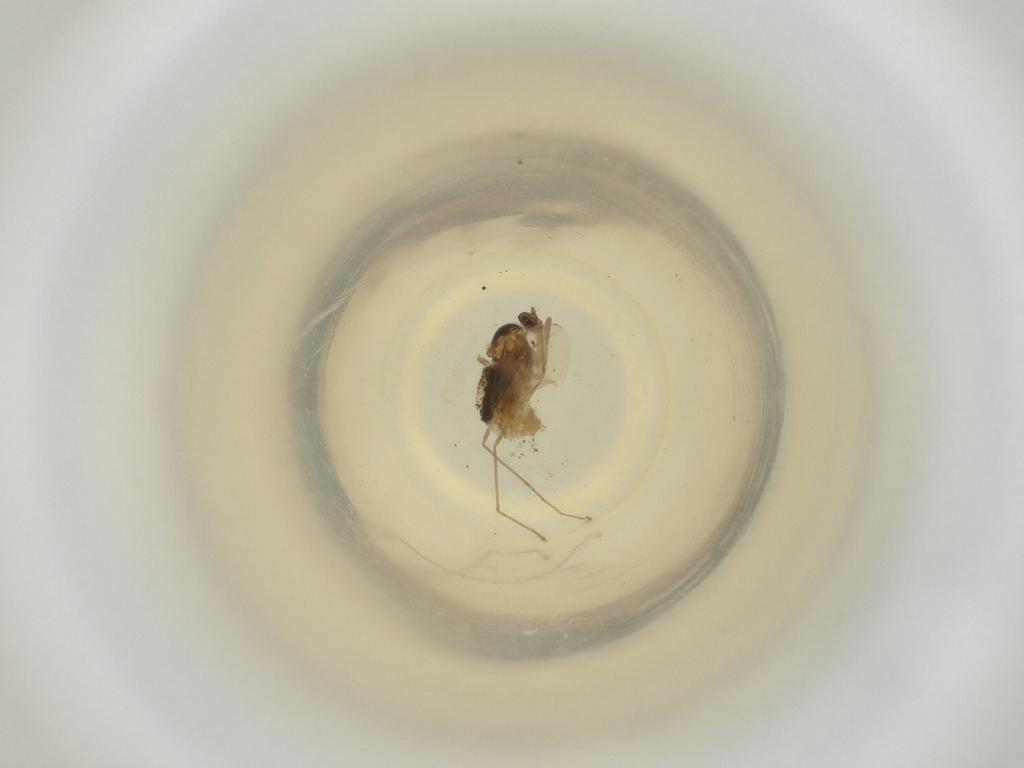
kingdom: Animalia
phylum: Arthropoda
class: Insecta
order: Diptera
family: Cecidomyiidae
